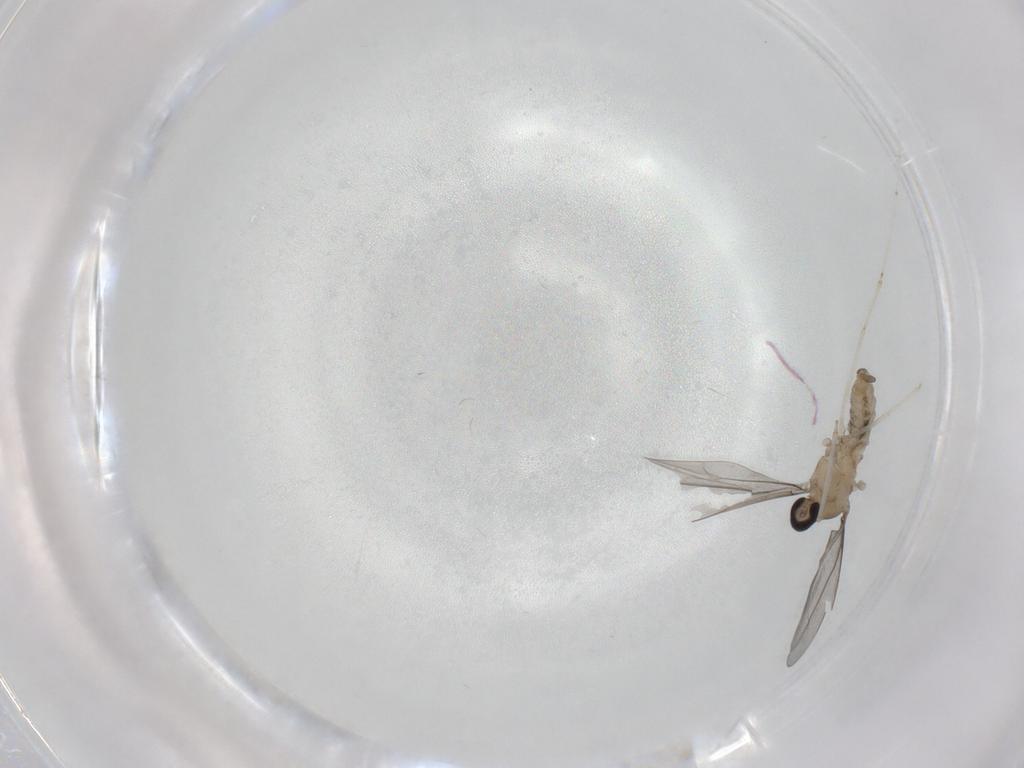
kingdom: Animalia
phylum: Arthropoda
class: Insecta
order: Diptera
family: Cecidomyiidae
